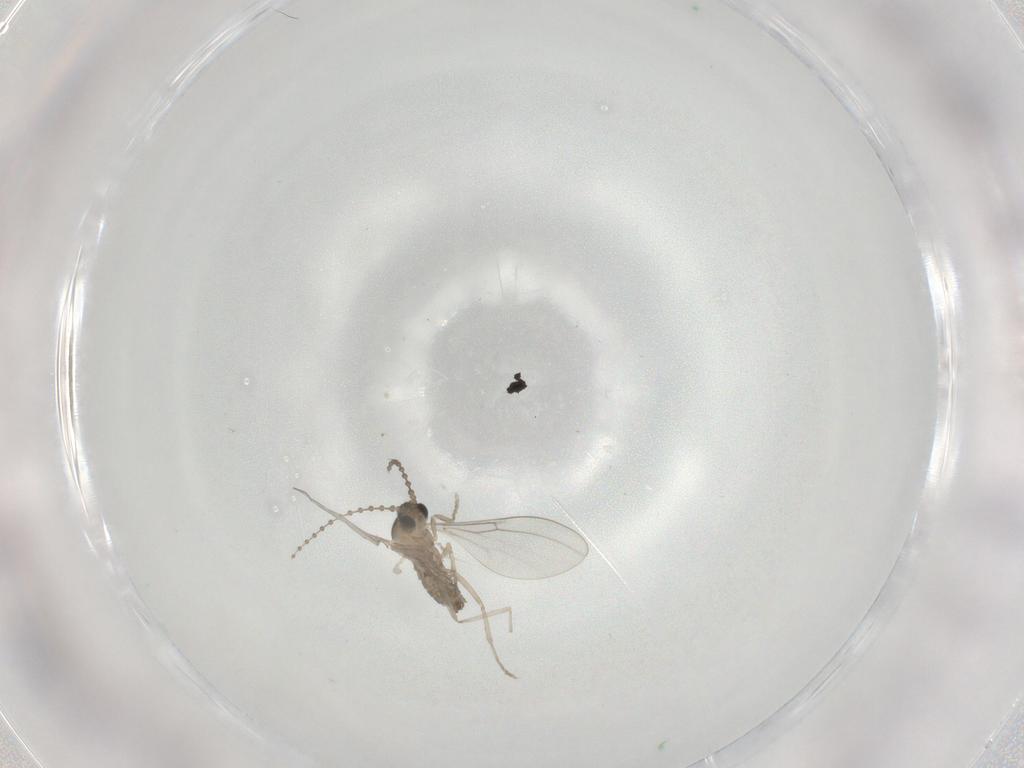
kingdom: Animalia
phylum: Arthropoda
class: Insecta
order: Diptera
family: Cecidomyiidae
